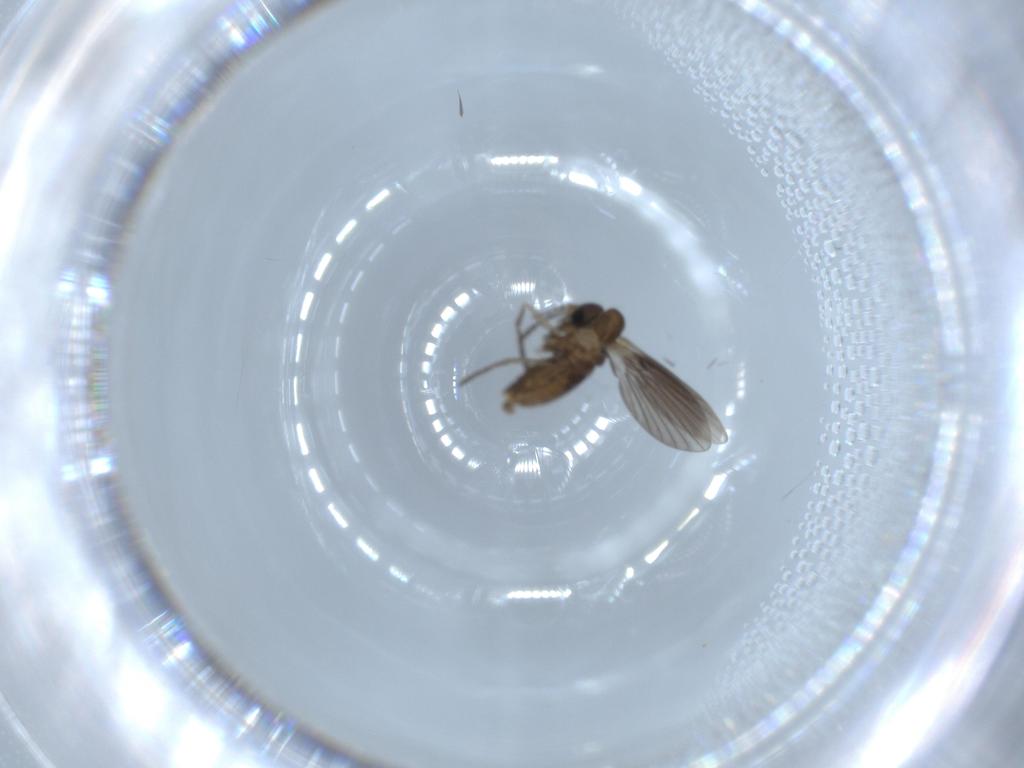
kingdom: Animalia
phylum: Arthropoda
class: Insecta
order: Diptera
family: Psychodidae
